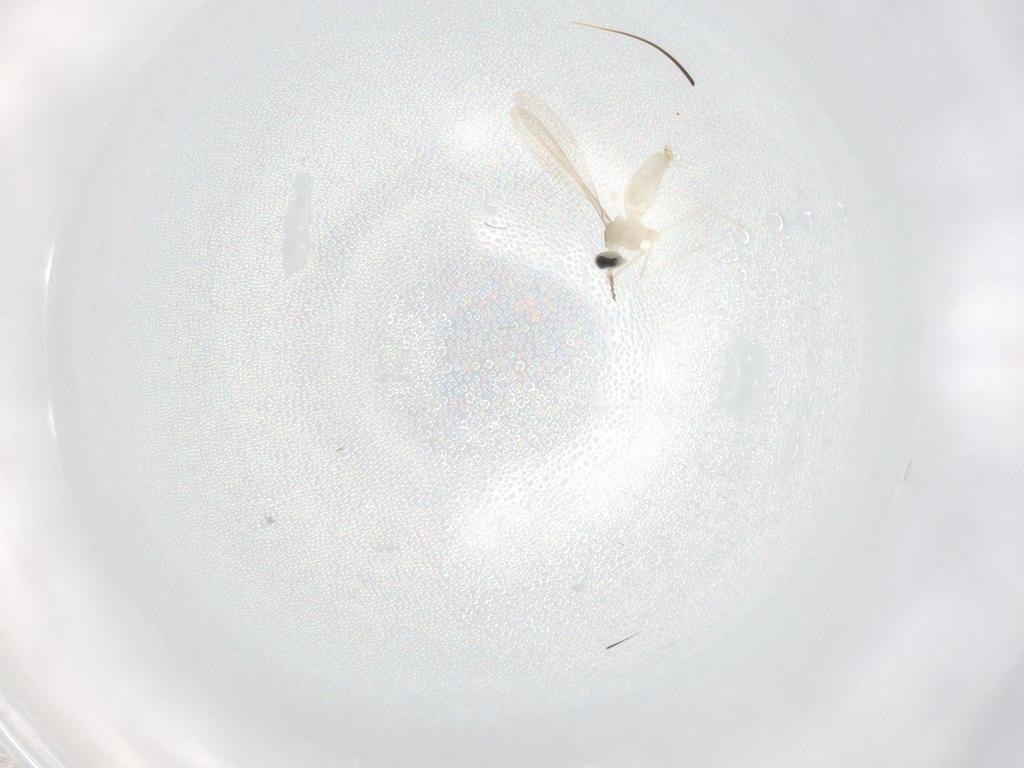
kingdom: Animalia
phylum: Arthropoda
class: Insecta
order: Diptera
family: Cecidomyiidae
